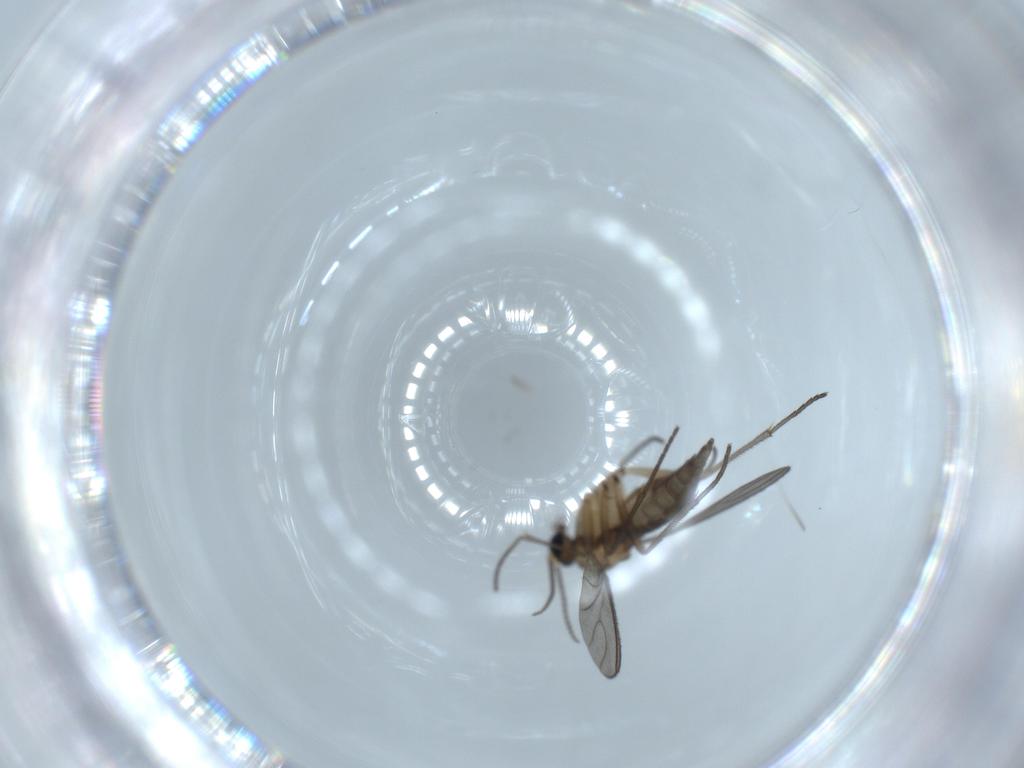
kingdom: Animalia
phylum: Arthropoda
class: Insecta
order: Diptera
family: Sciaridae
